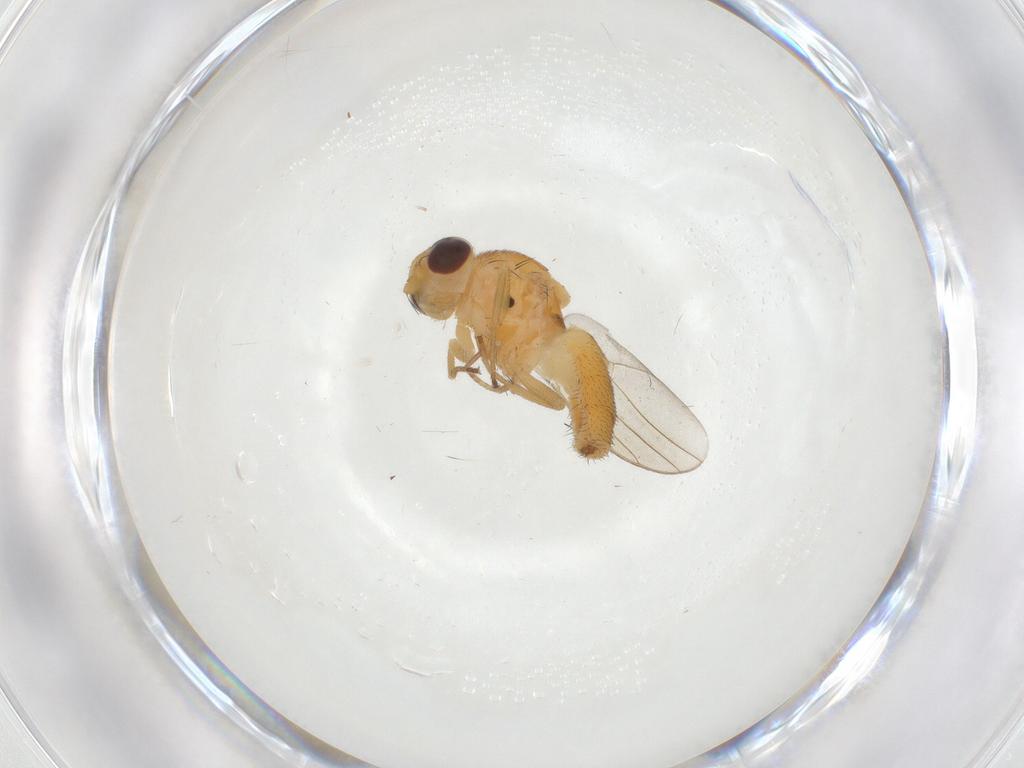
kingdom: Animalia
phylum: Arthropoda
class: Insecta
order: Diptera
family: Chloropidae
